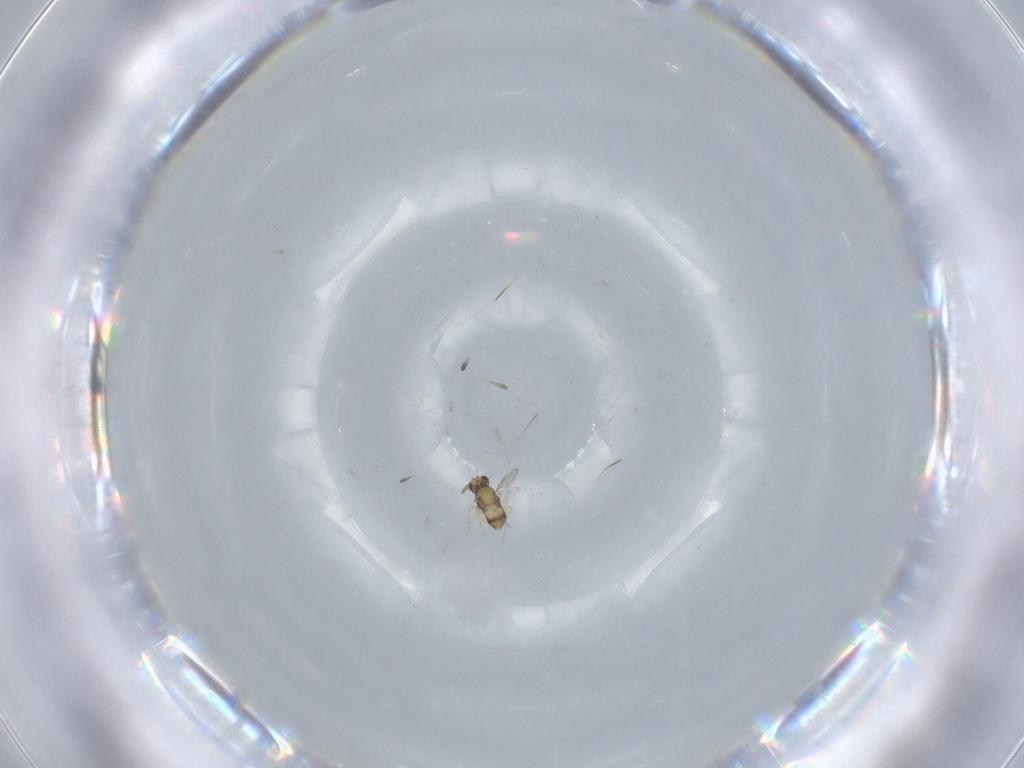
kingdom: Animalia
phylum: Arthropoda
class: Insecta
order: Hymenoptera
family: Aphelinidae
